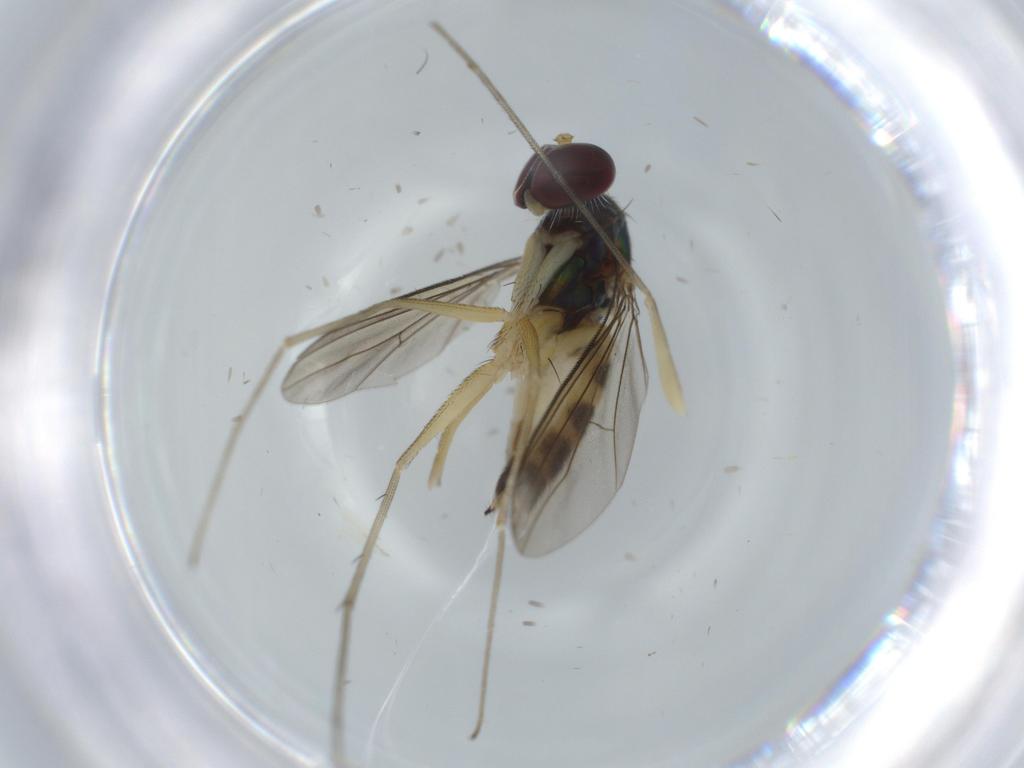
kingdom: Animalia
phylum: Arthropoda
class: Insecta
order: Diptera
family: Dolichopodidae
